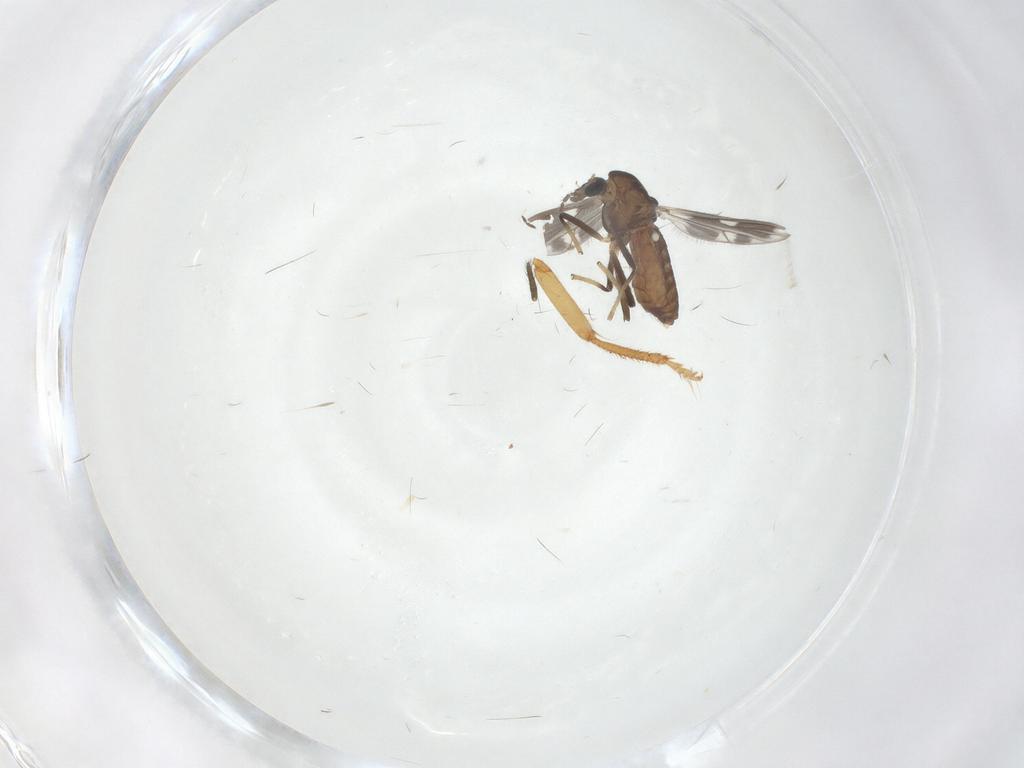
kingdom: Animalia
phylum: Arthropoda
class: Insecta
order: Diptera
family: Chironomidae
